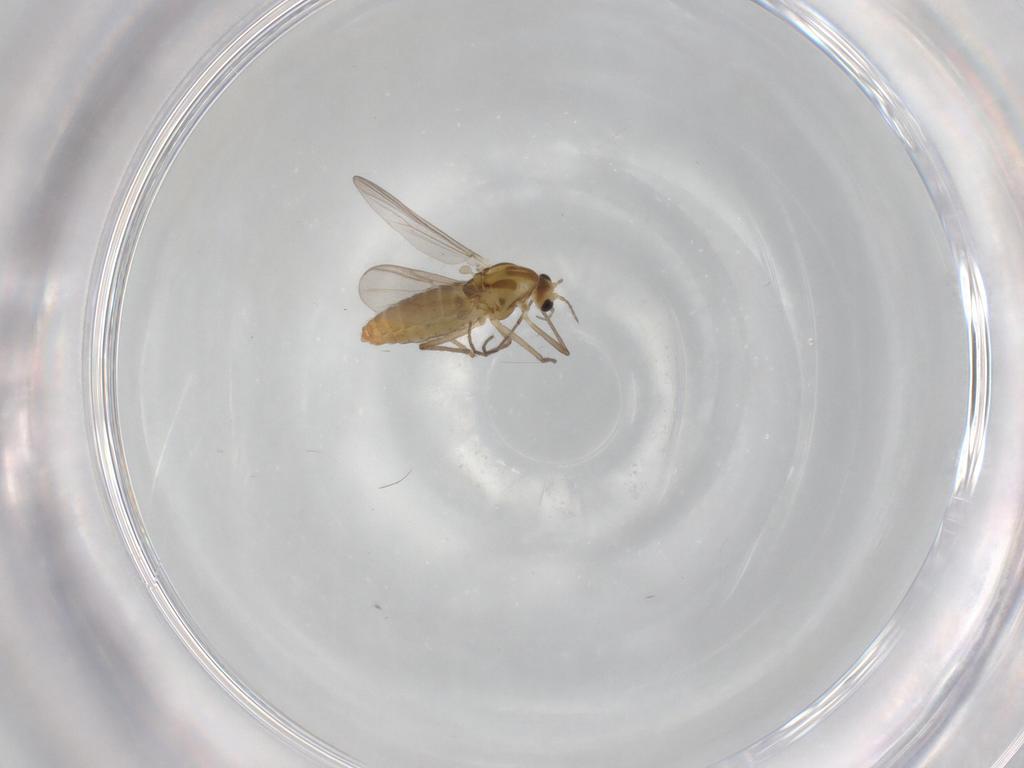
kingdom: Animalia
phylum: Arthropoda
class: Insecta
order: Diptera
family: Chironomidae
